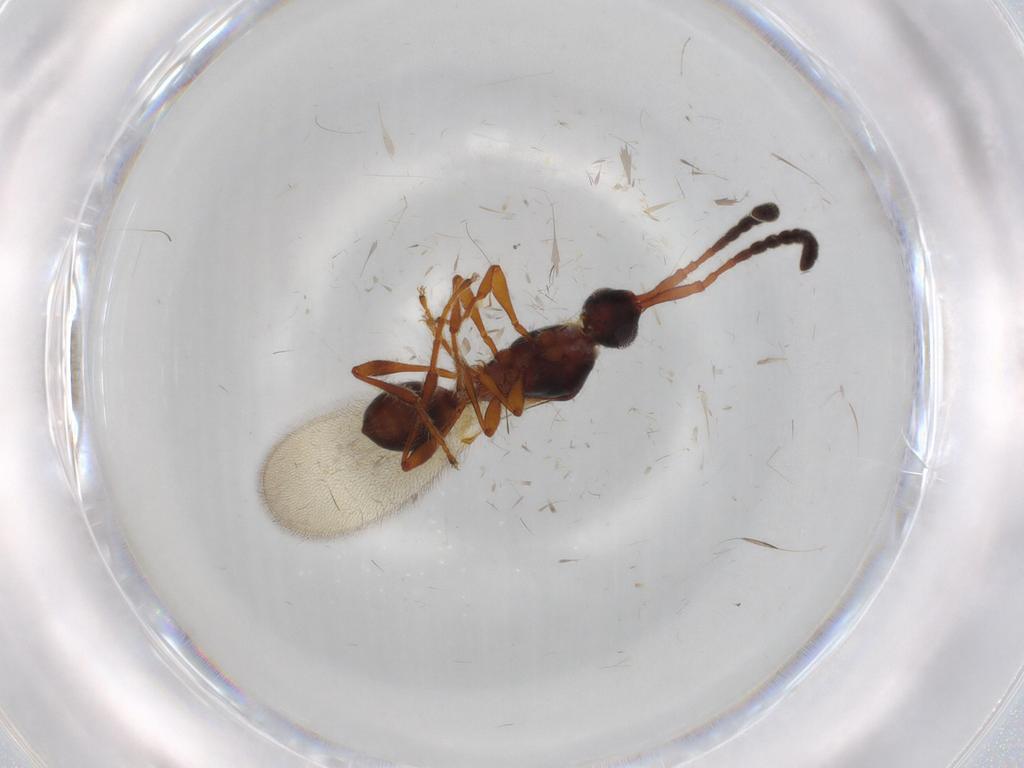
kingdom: Animalia
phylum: Arthropoda
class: Insecta
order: Hymenoptera
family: Diapriidae
